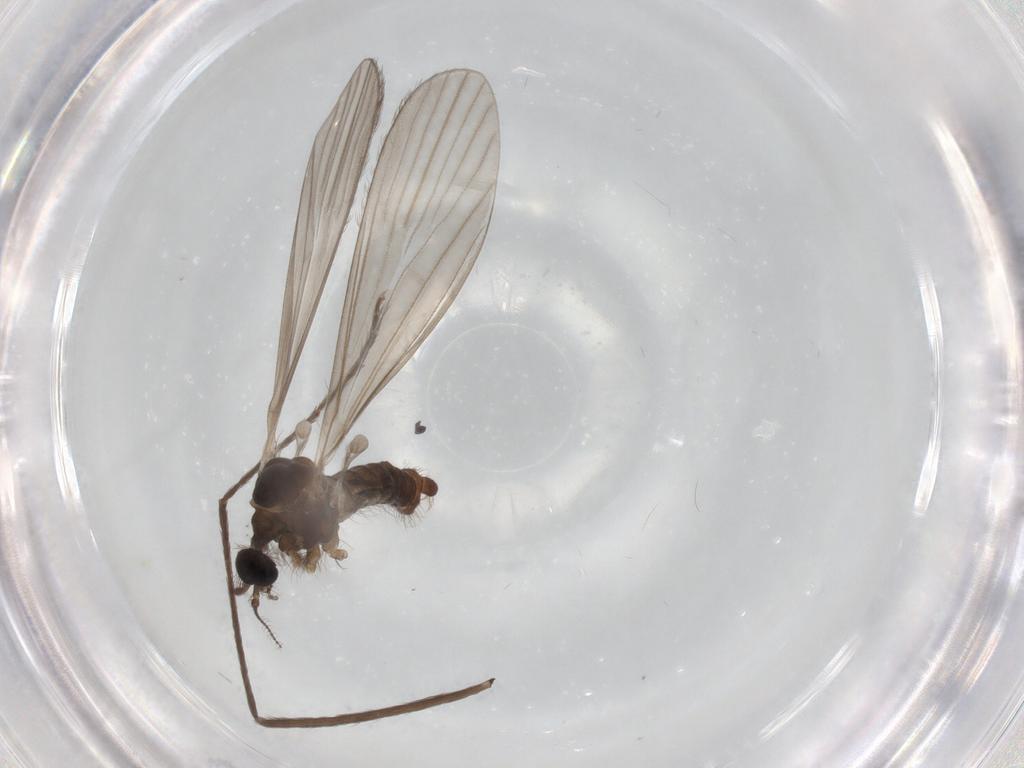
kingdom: Animalia
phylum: Arthropoda
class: Insecta
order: Diptera
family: Limoniidae
